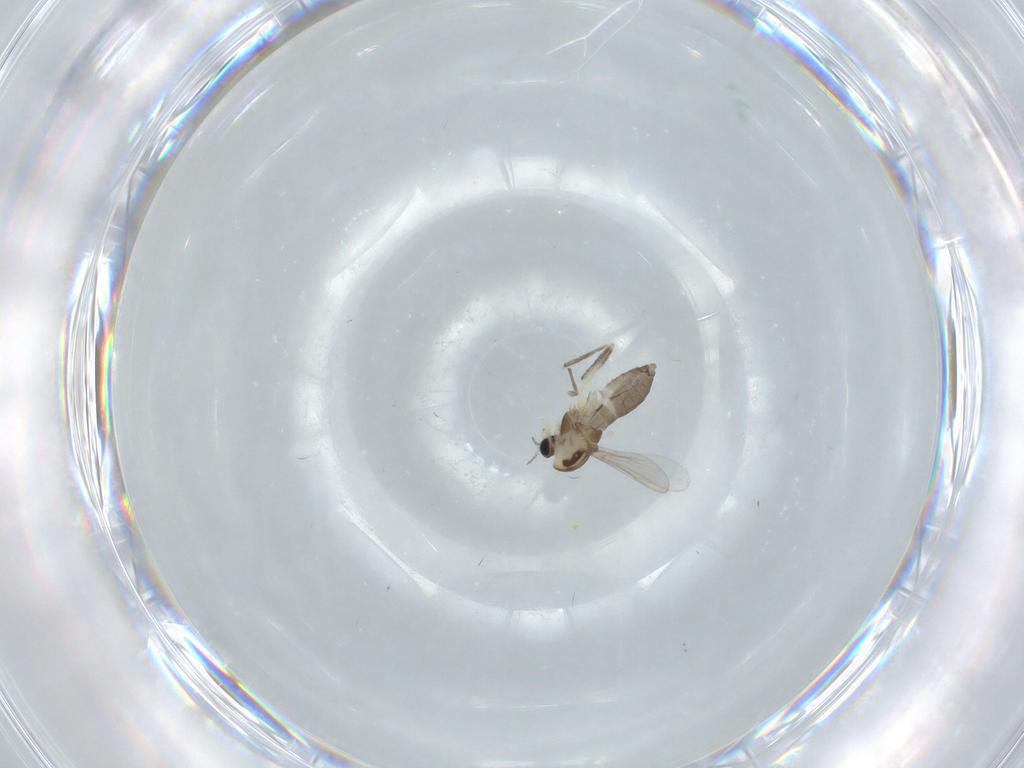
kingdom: Animalia
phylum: Arthropoda
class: Insecta
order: Diptera
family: Chironomidae
